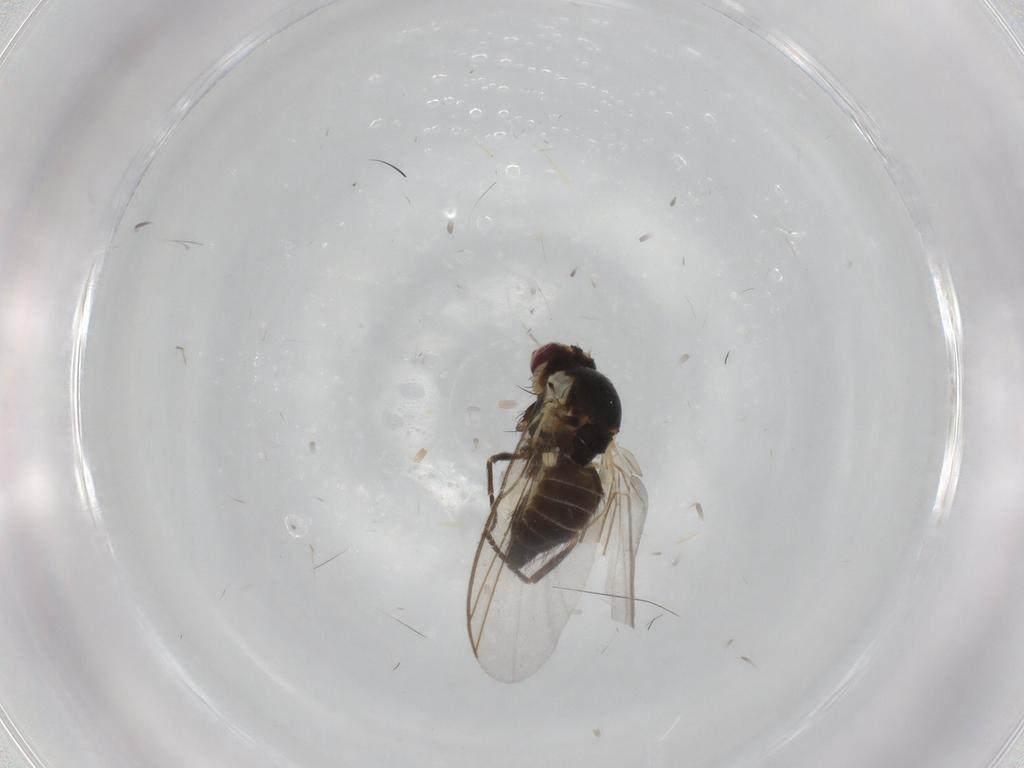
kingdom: Animalia
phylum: Arthropoda
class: Insecta
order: Diptera
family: Agromyzidae
